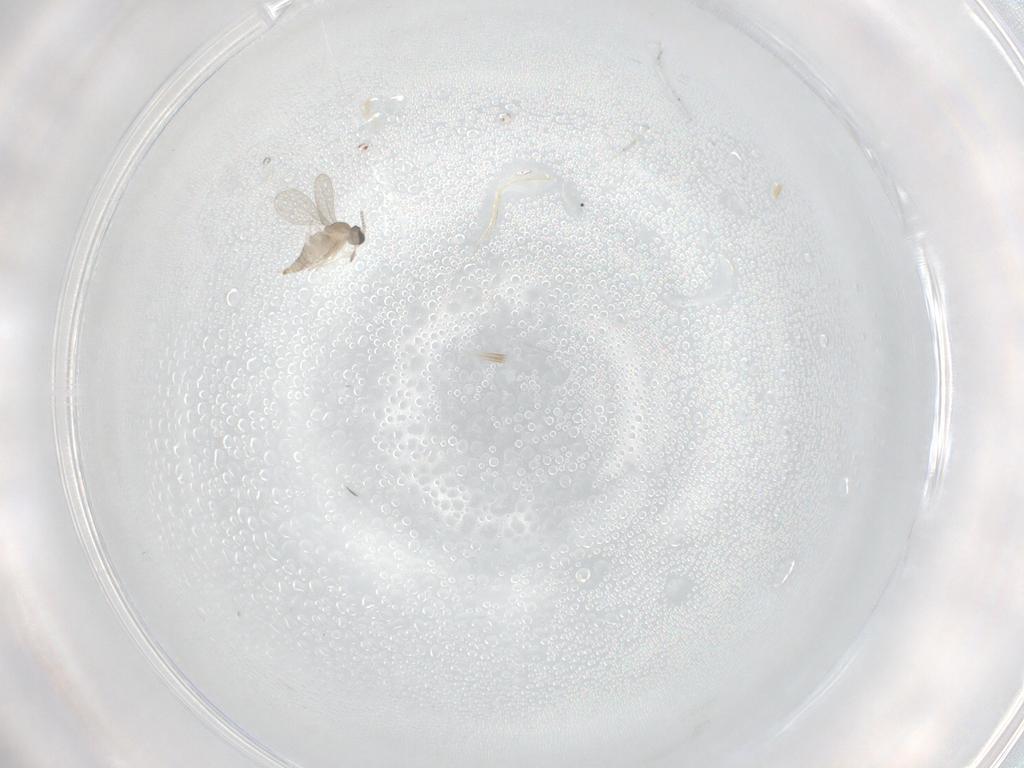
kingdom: Animalia
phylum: Arthropoda
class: Insecta
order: Diptera
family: Cecidomyiidae
